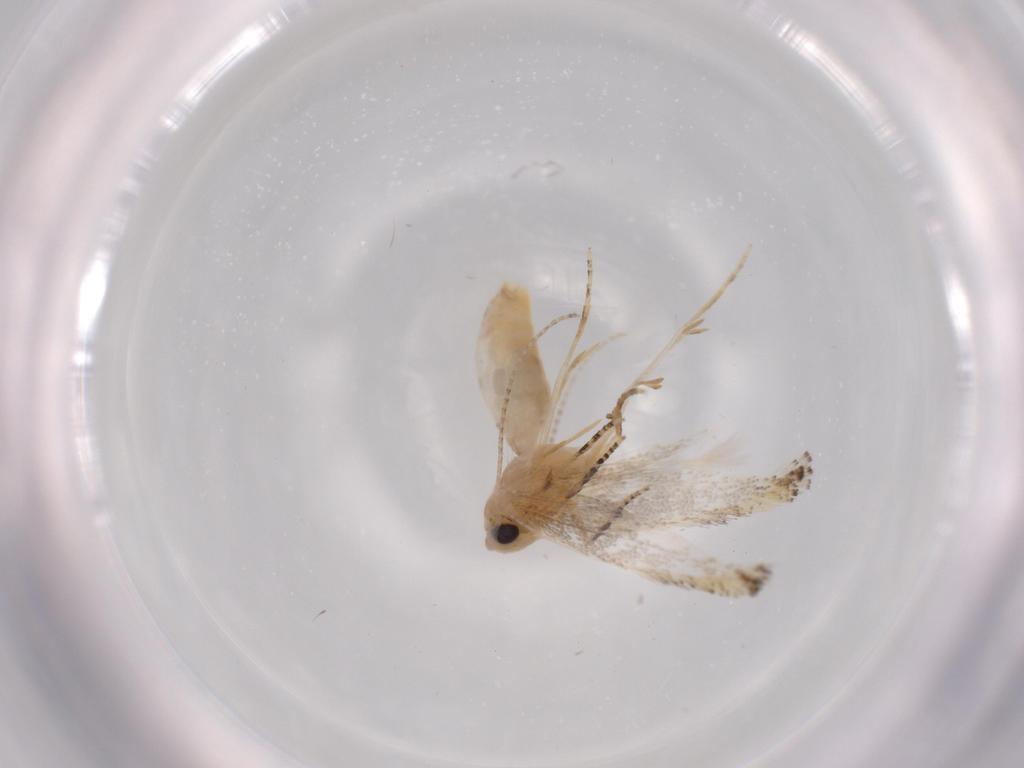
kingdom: Animalia
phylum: Arthropoda
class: Insecta
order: Lepidoptera
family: Bucculatricidae
